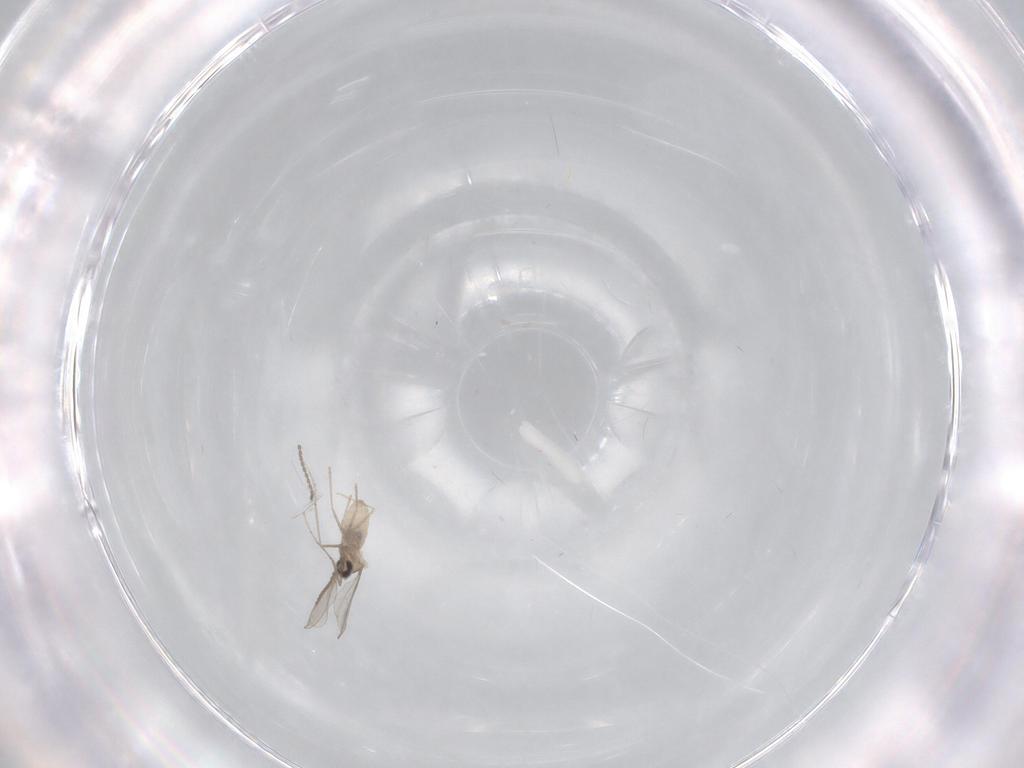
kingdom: Animalia
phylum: Arthropoda
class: Insecta
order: Diptera
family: Cecidomyiidae
